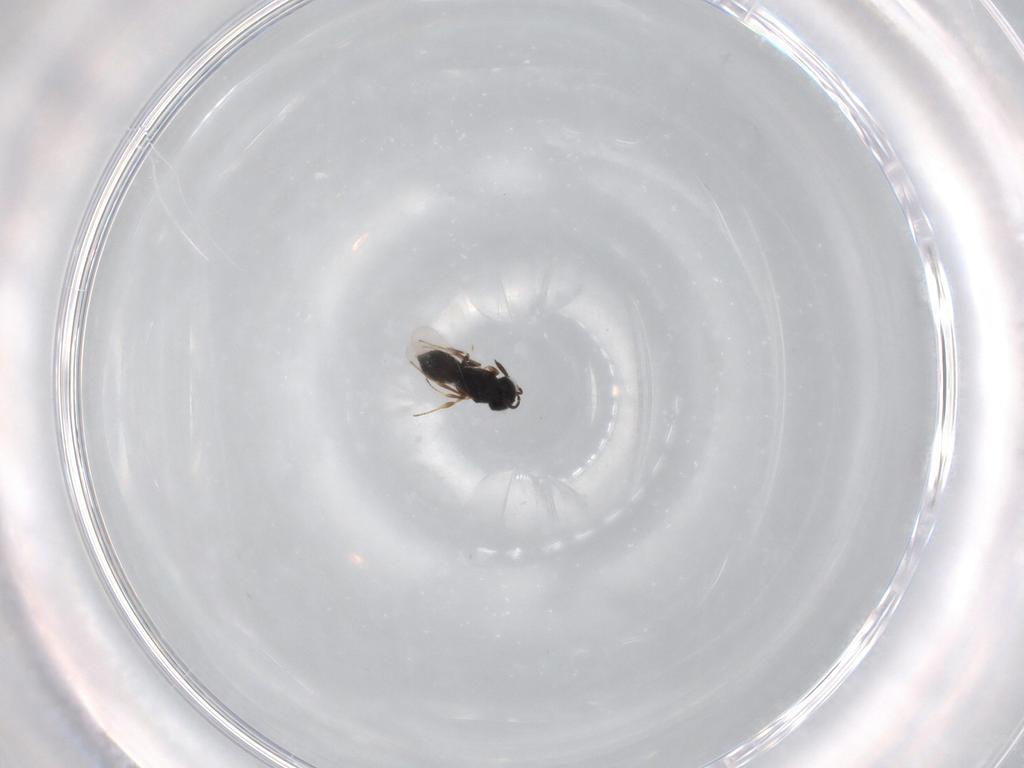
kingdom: Animalia
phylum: Arthropoda
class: Insecta
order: Hymenoptera
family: Scelionidae
